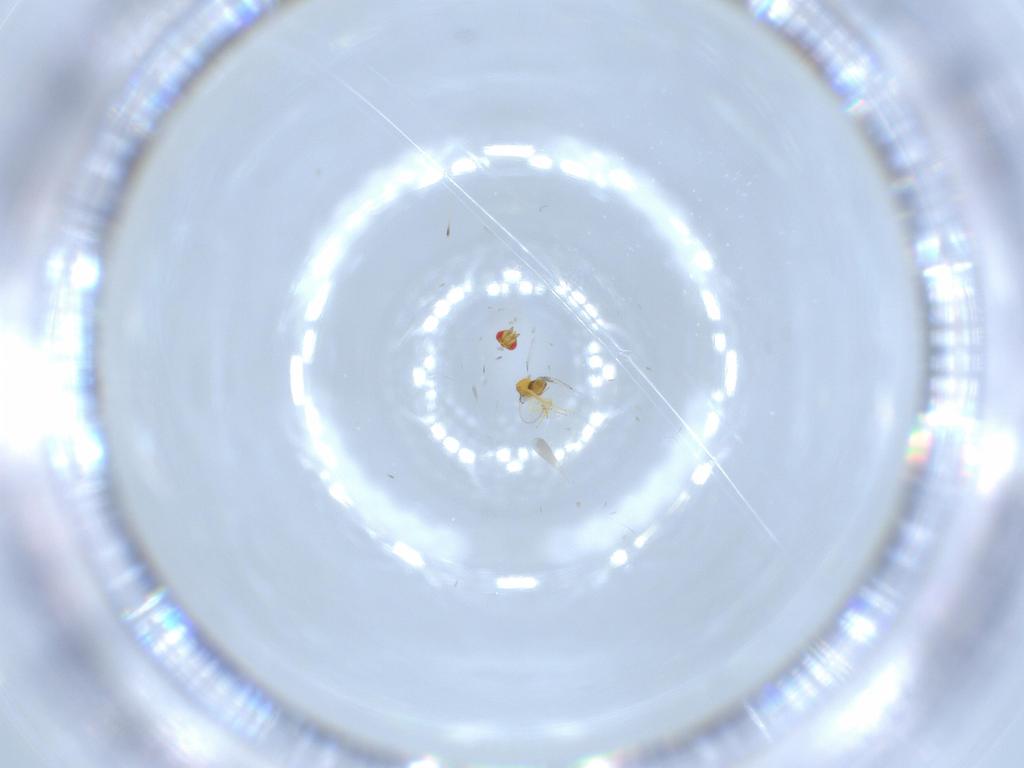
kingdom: Animalia
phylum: Arthropoda
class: Insecta
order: Hymenoptera
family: Trichogrammatidae
